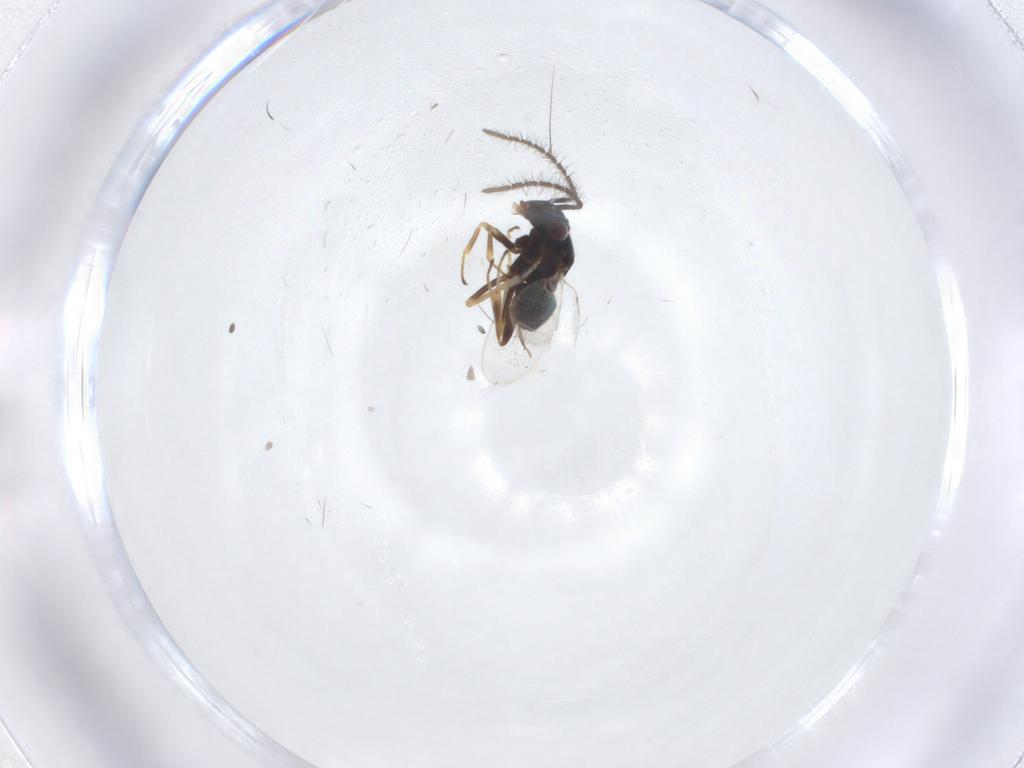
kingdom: Animalia
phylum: Arthropoda
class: Insecta
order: Hymenoptera
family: Encyrtidae
